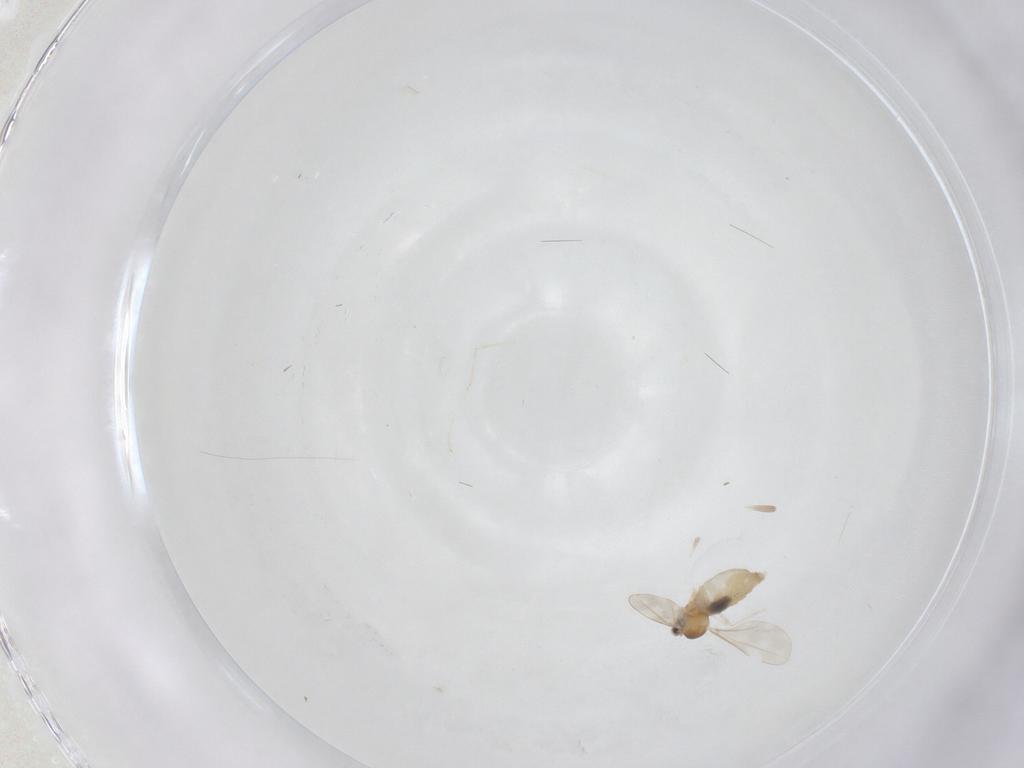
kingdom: Animalia
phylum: Arthropoda
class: Insecta
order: Diptera
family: Cecidomyiidae
